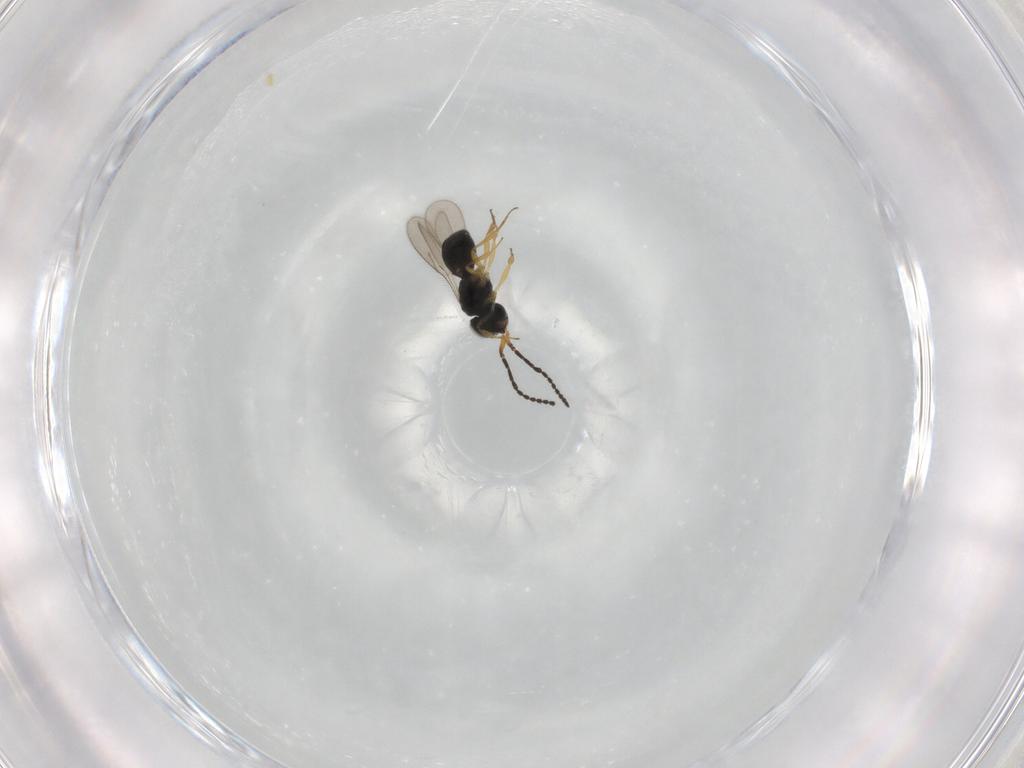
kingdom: Animalia
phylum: Arthropoda
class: Insecta
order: Hymenoptera
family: Scelionidae
